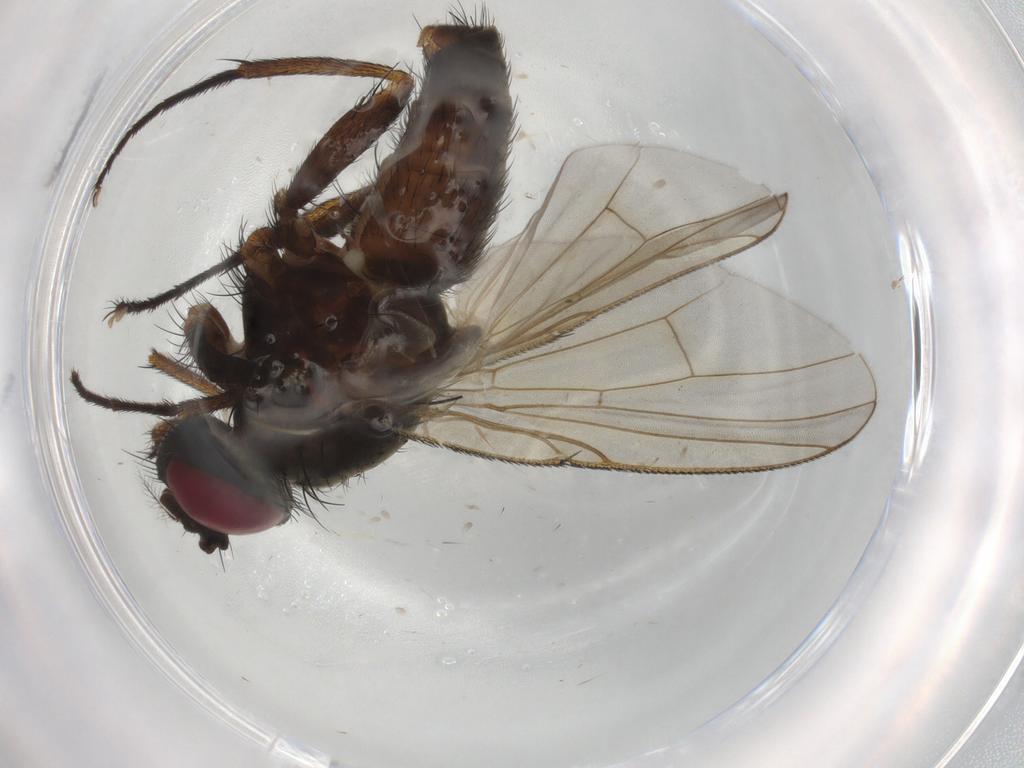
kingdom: Animalia
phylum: Arthropoda
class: Insecta
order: Diptera
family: Muscidae
